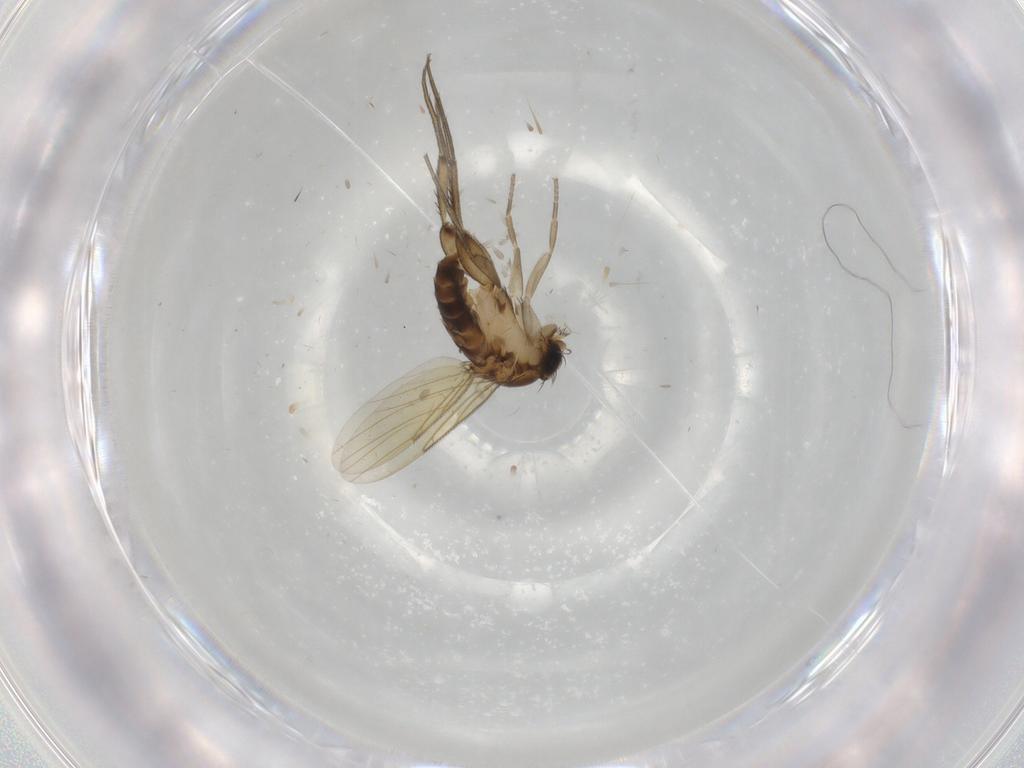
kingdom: Animalia
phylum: Arthropoda
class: Insecta
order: Diptera
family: Phoridae
